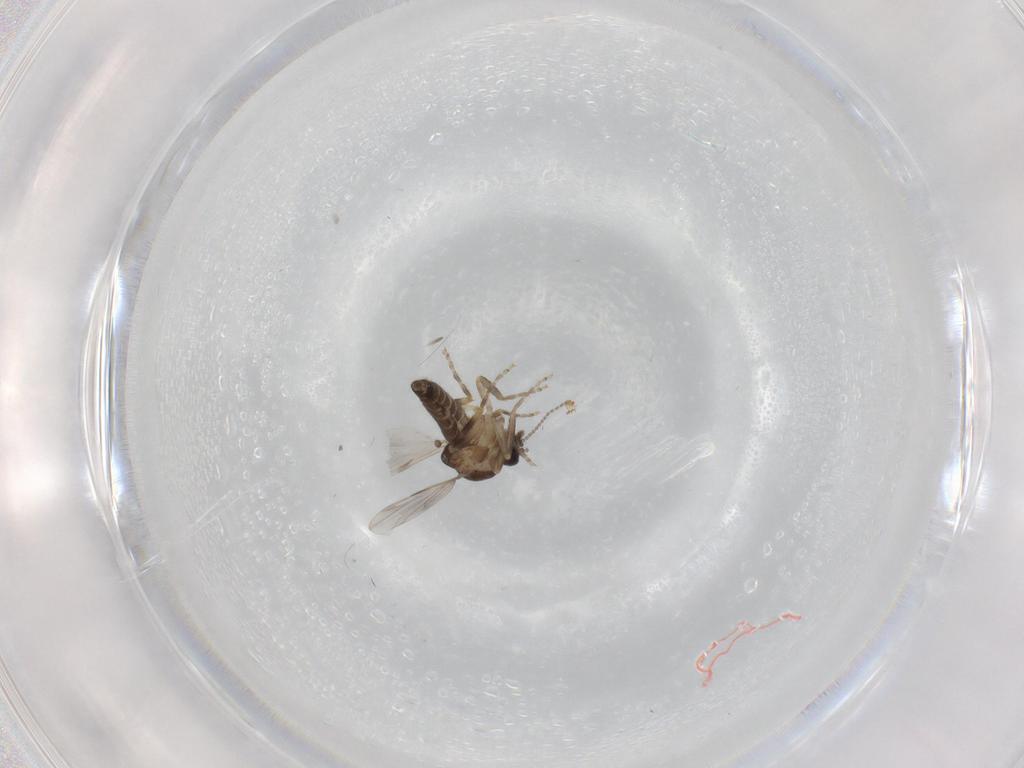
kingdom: Animalia
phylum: Arthropoda
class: Insecta
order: Diptera
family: Ceratopogonidae
